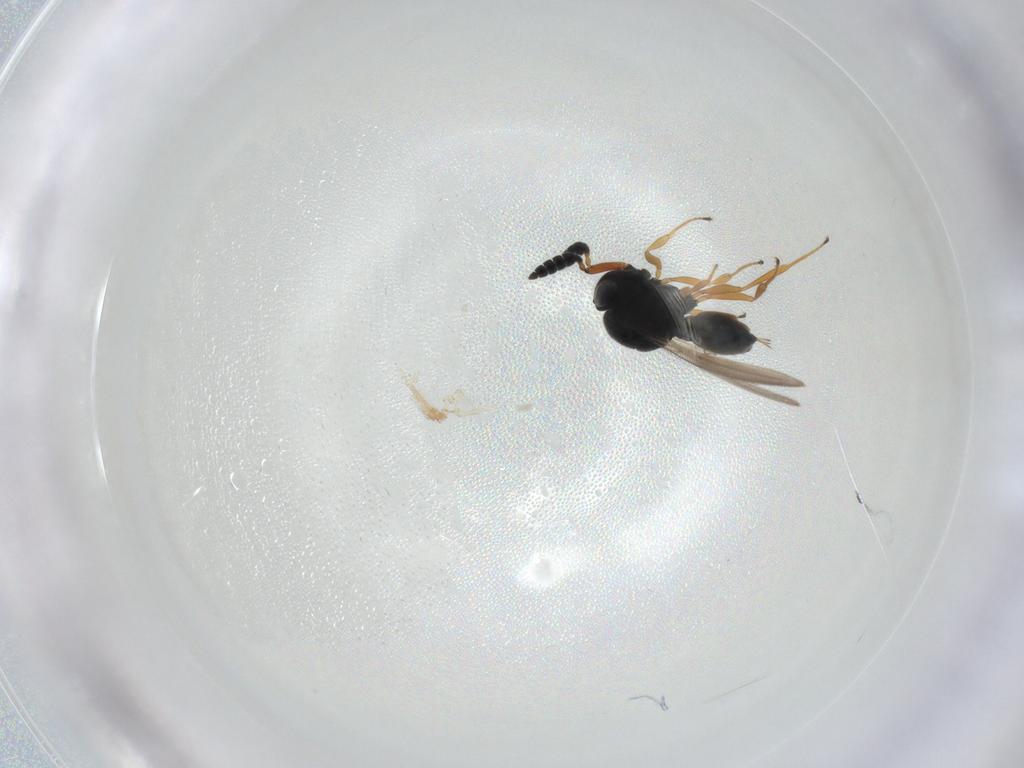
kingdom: Animalia
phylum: Arthropoda
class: Insecta
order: Hymenoptera
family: Scelionidae
